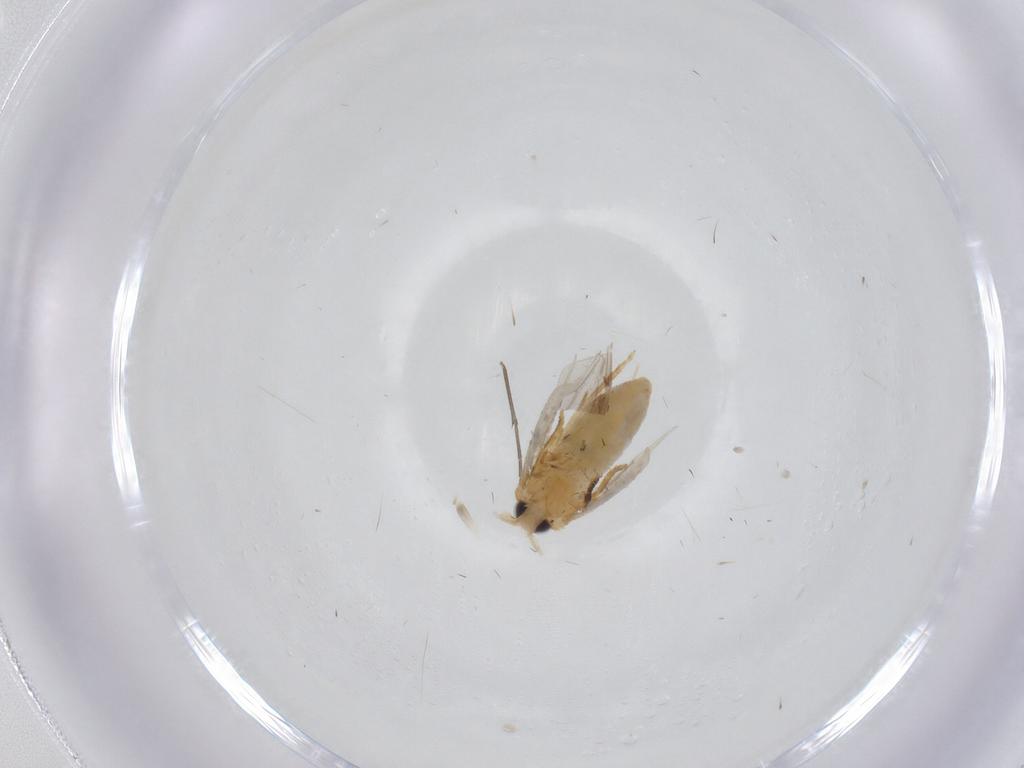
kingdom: Animalia
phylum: Arthropoda
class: Insecta
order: Lepidoptera
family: Nepticulidae
